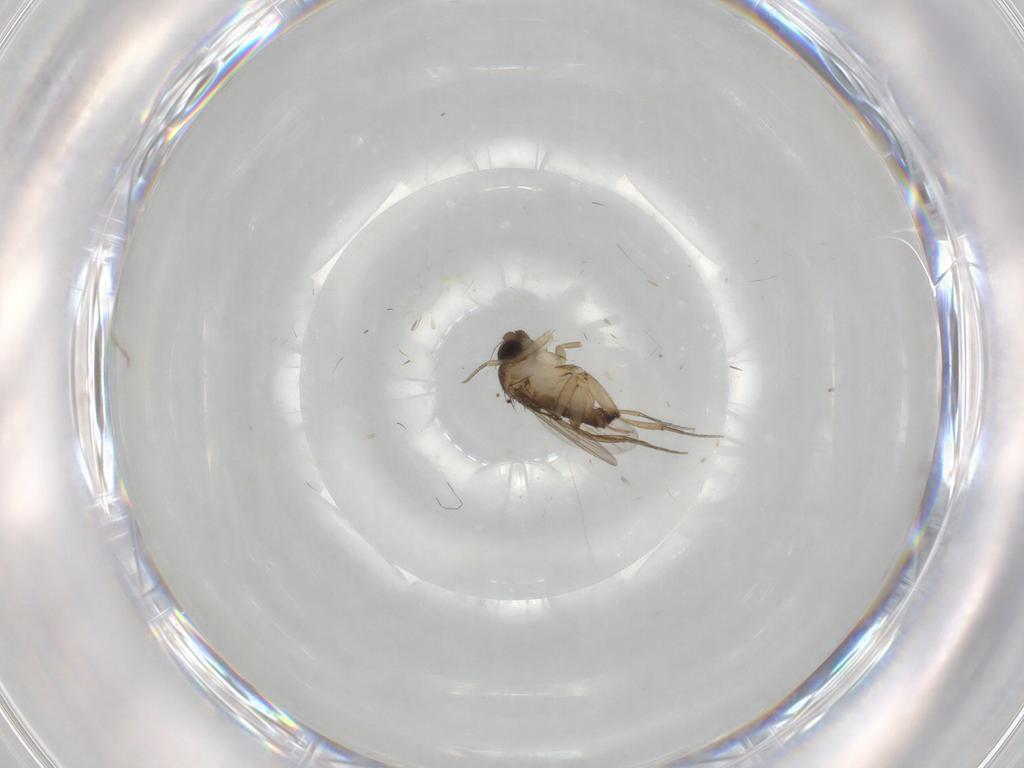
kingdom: Animalia
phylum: Arthropoda
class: Insecta
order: Diptera
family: Phoridae
